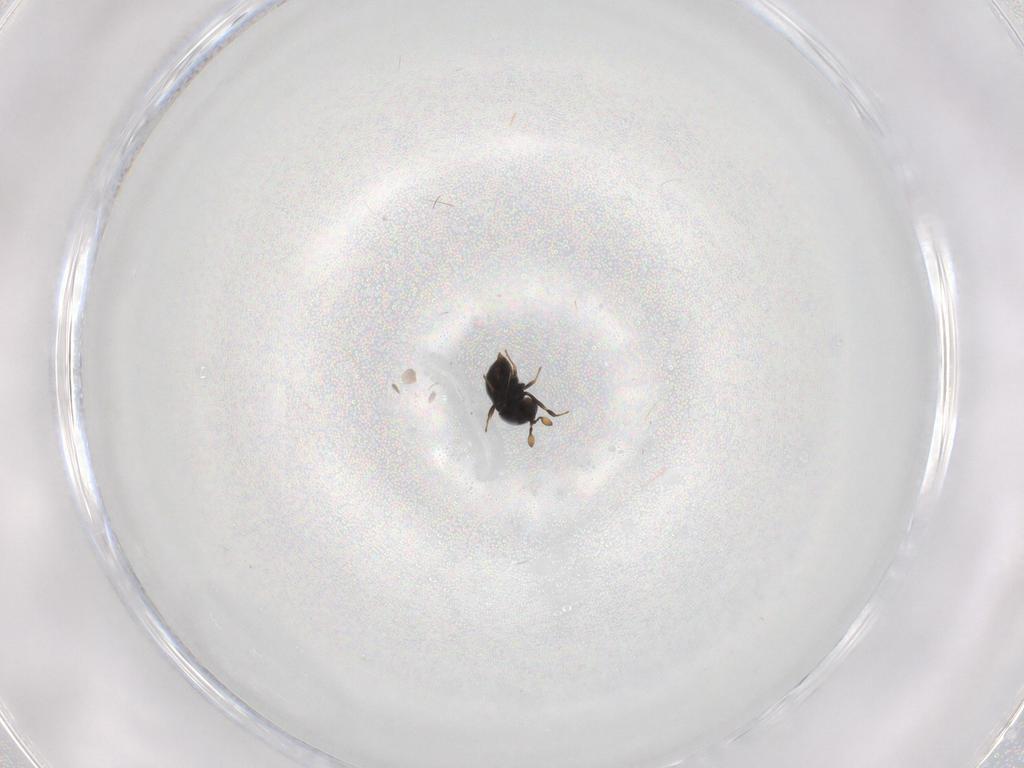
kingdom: Animalia
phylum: Arthropoda
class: Insecta
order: Hymenoptera
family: Scelionidae
